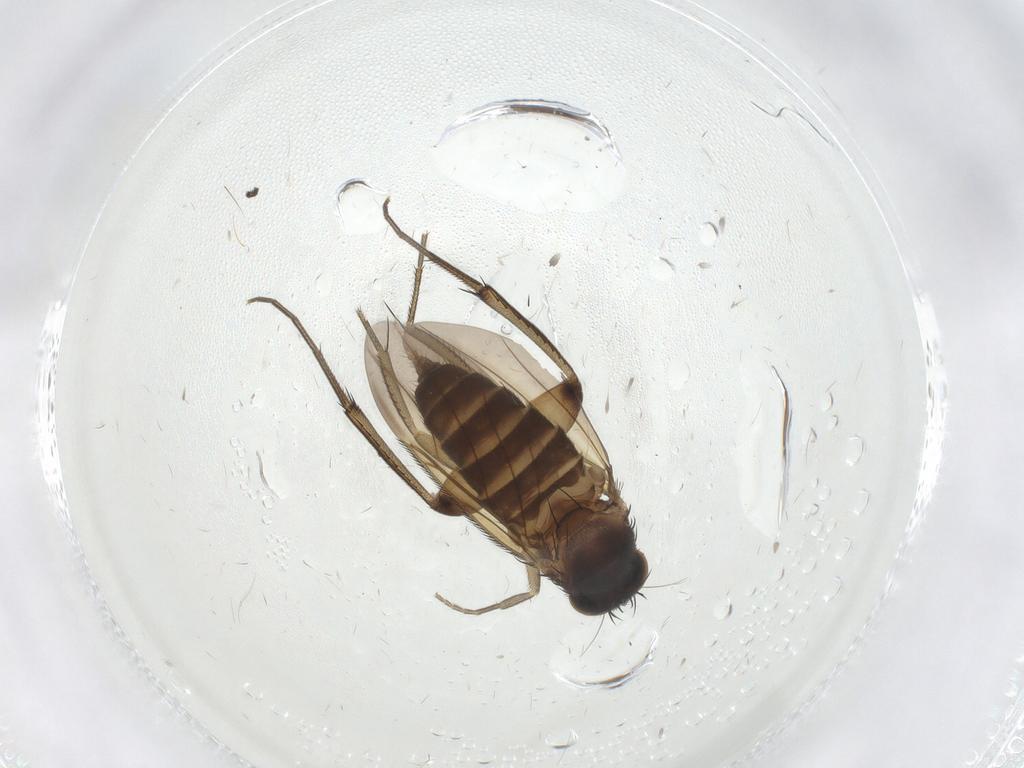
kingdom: Animalia
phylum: Arthropoda
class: Insecta
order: Diptera
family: Phoridae
